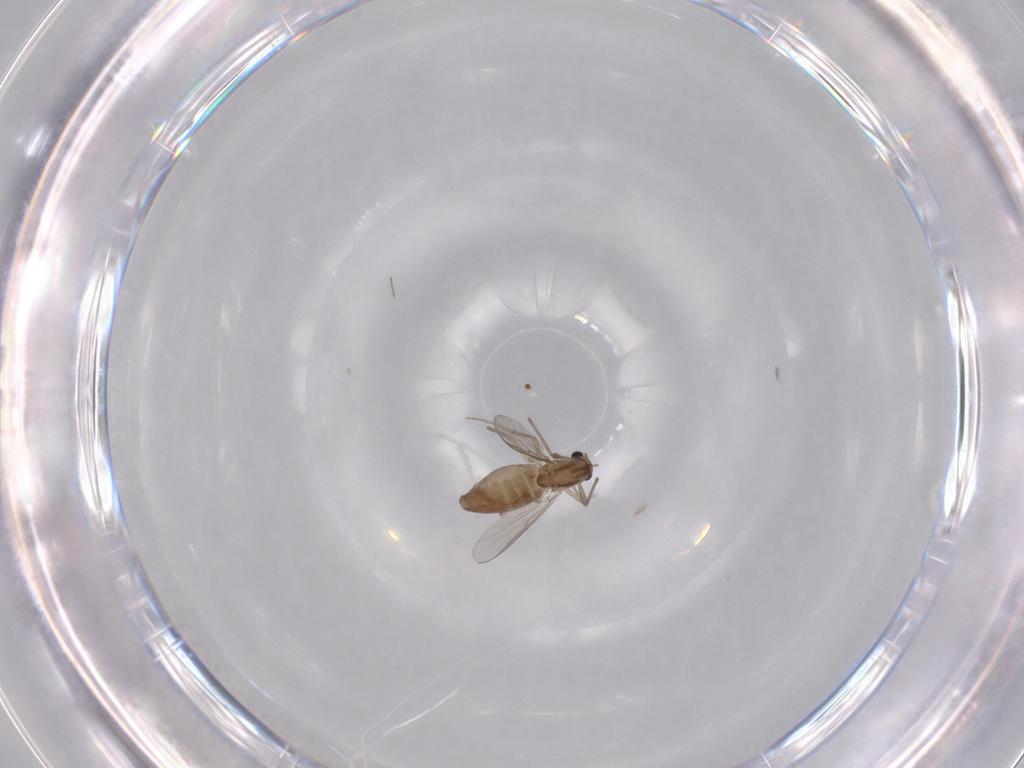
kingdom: Animalia
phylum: Arthropoda
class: Insecta
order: Diptera
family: Chironomidae
